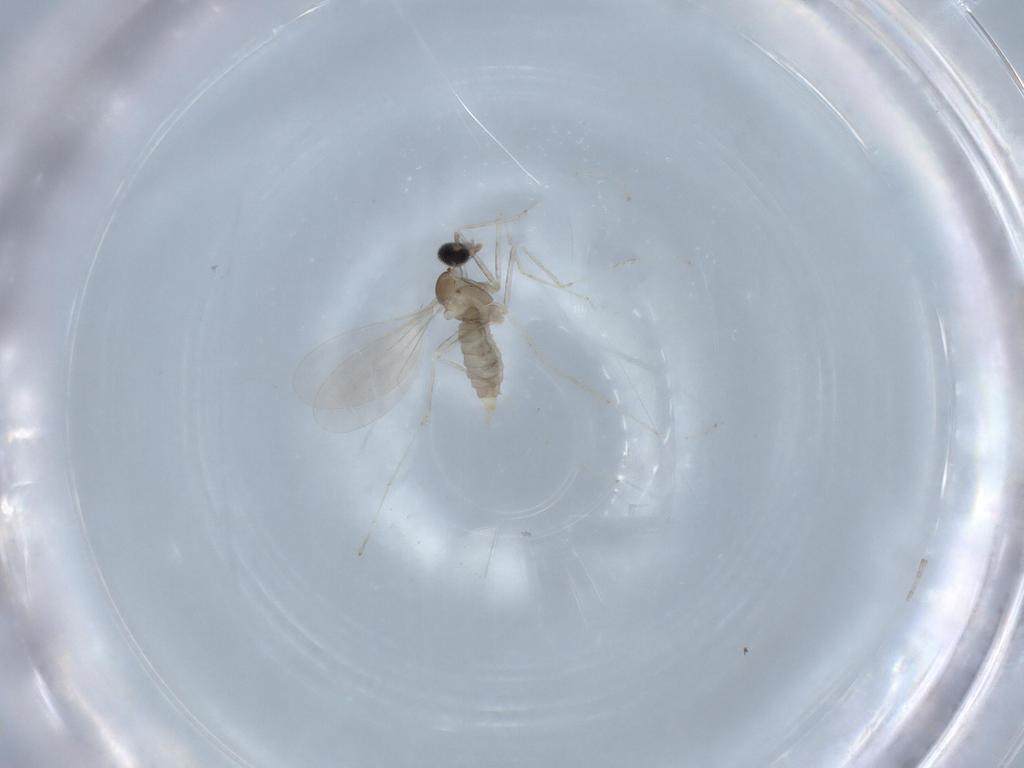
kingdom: Animalia
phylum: Arthropoda
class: Insecta
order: Diptera
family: Cecidomyiidae
